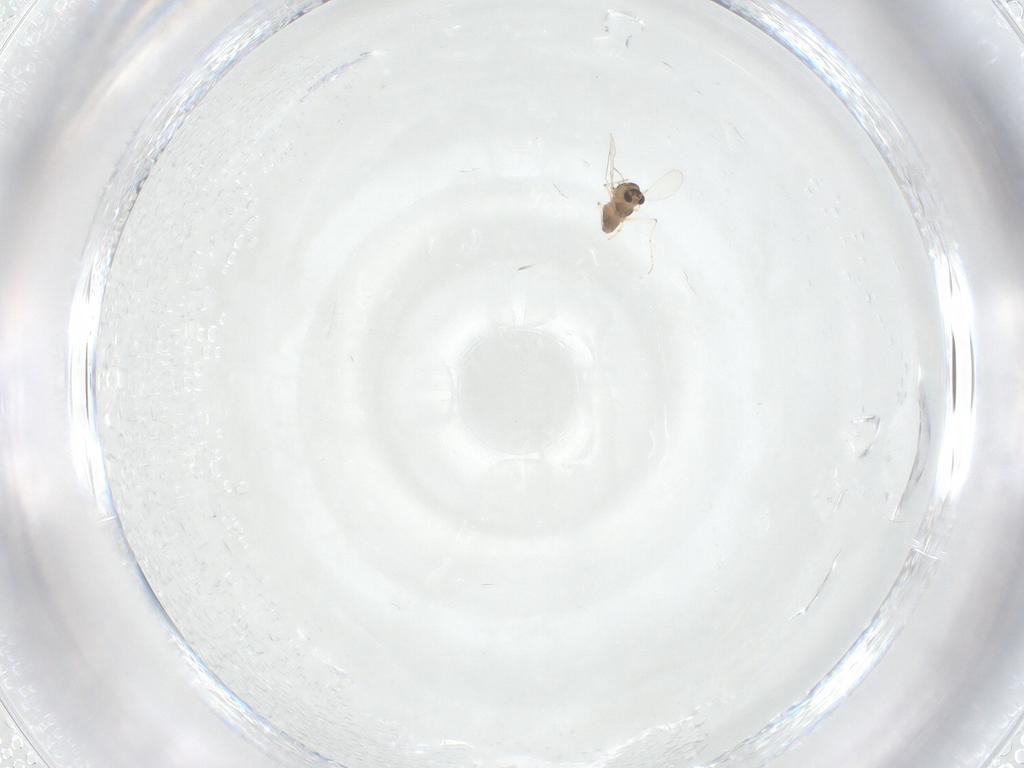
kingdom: Animalia
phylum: Arthropoda
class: Insecta
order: Diptera
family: Chironomidae
